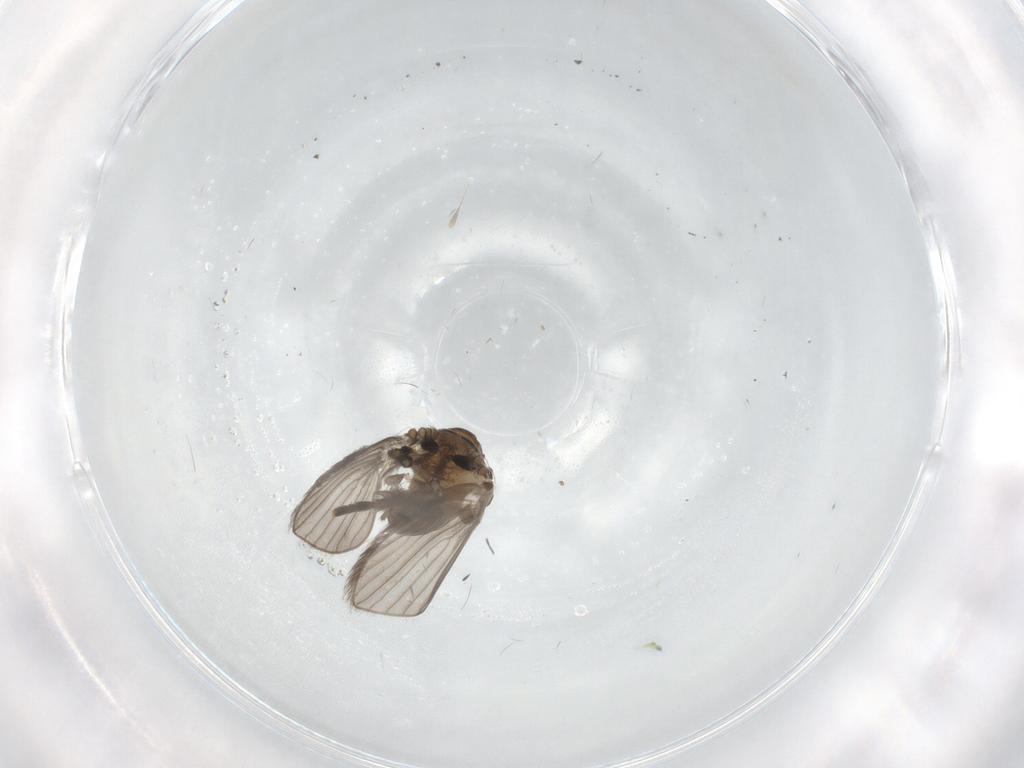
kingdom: Animalia
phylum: Arthropoda
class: Insecta
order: Diptera
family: Psychodidae
